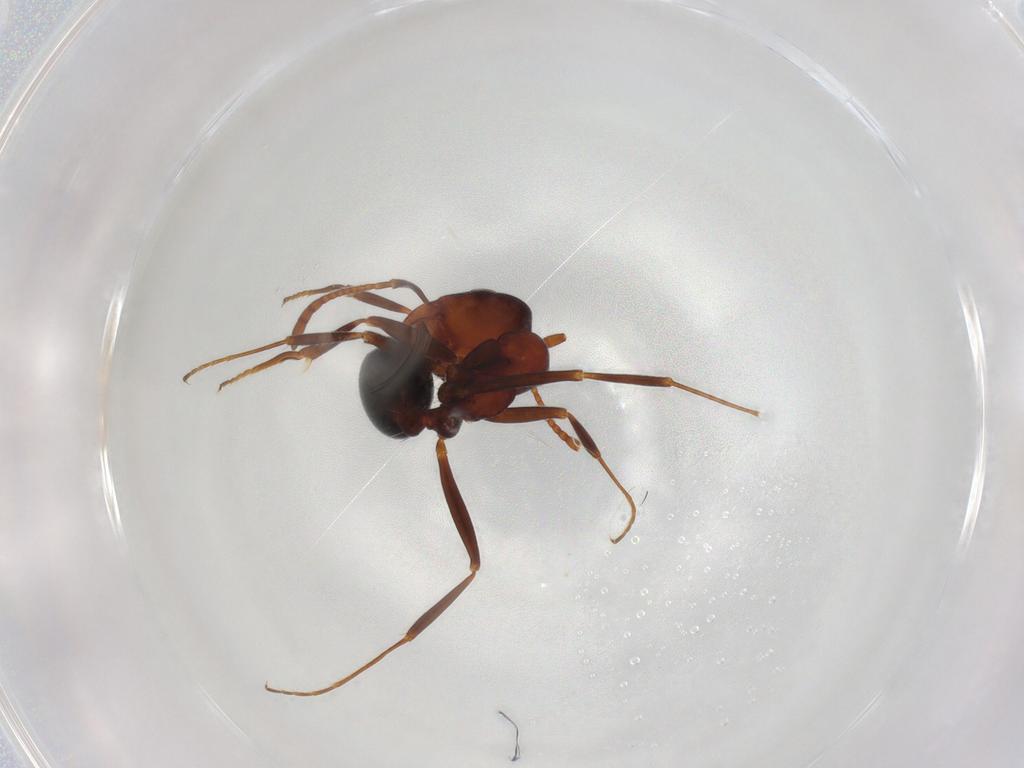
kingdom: Animalia
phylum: Arthropoda
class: Insecta
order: Hymenoptera
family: Formicidae
